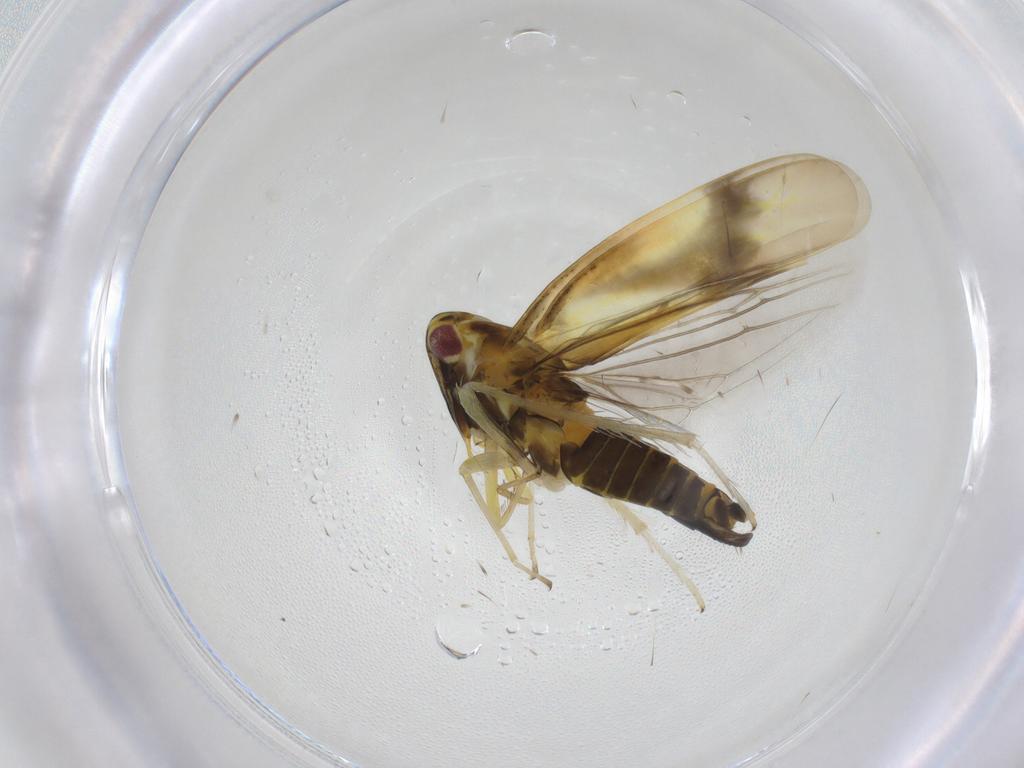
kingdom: Animalia
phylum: Arthropoda
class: Insecta
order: Hemiptera
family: Cicadellidae
